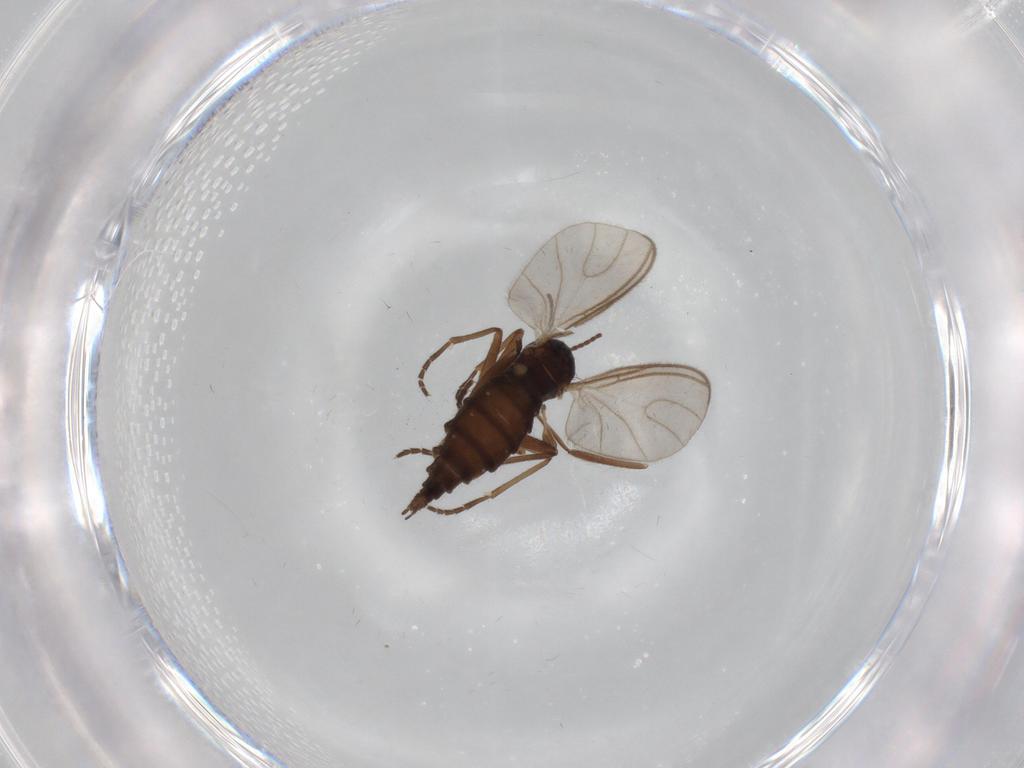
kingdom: Animalia
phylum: Arthropoda
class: Insecta
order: Diptera
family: Sciaridae
